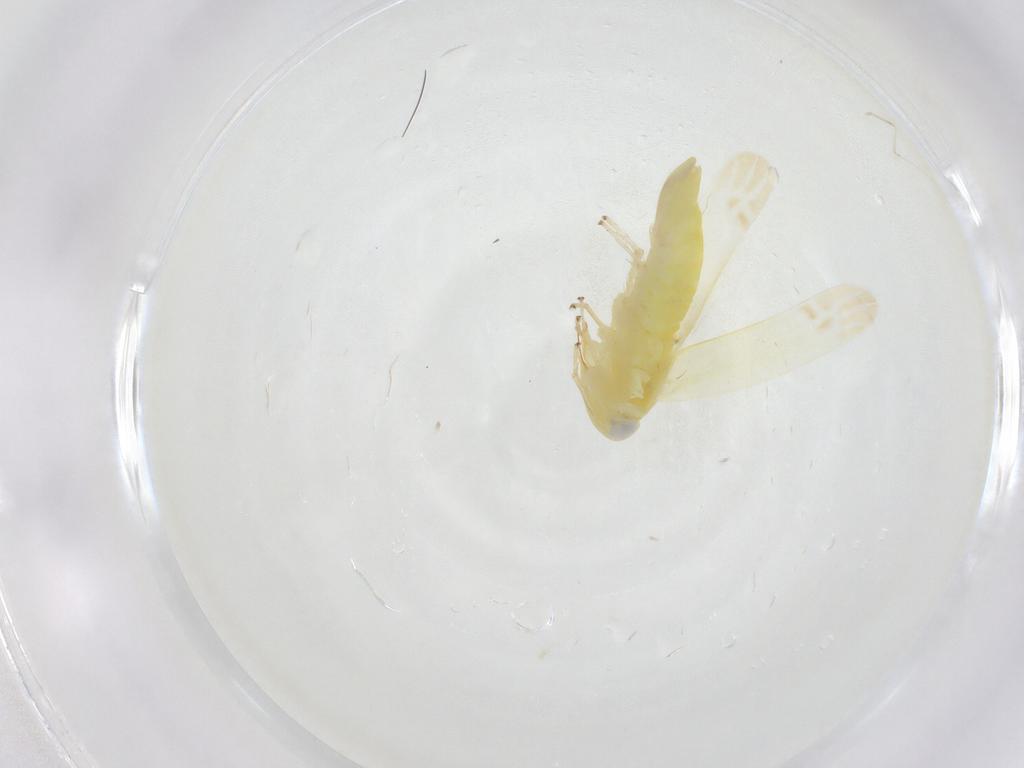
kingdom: Animalia
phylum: Arthropoda
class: Insecta
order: Hemiptera
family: Cicadellidae
